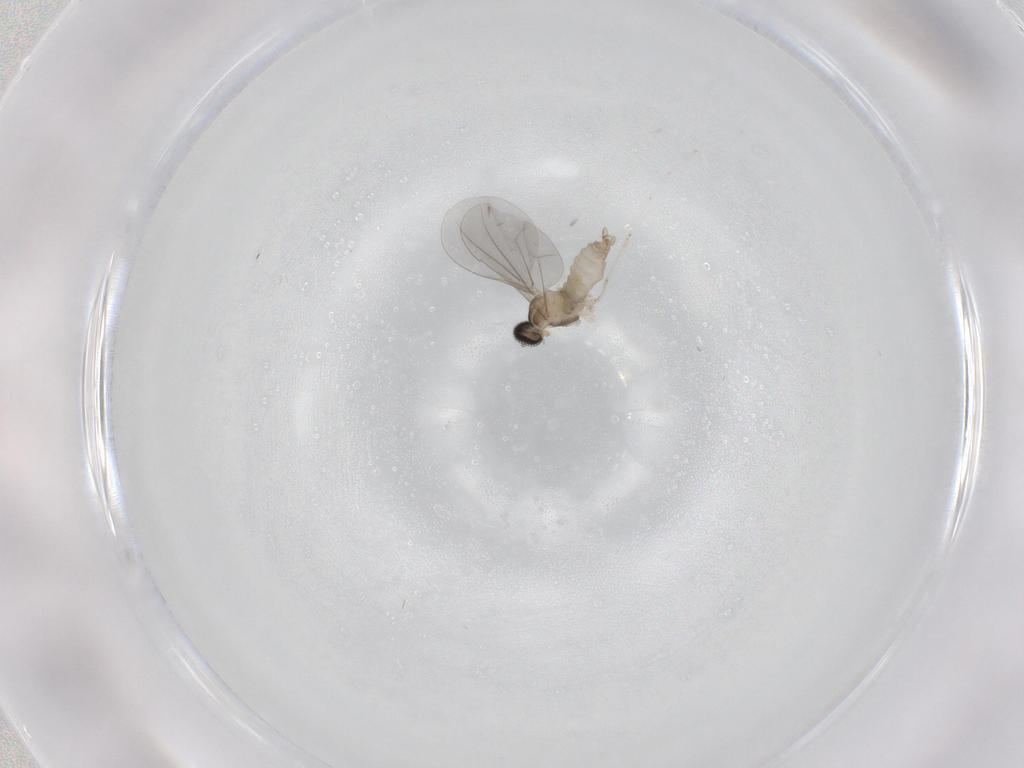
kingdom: Animalia
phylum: Arthropoda
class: Insecta
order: Diptera
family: Cecidomyiidae
